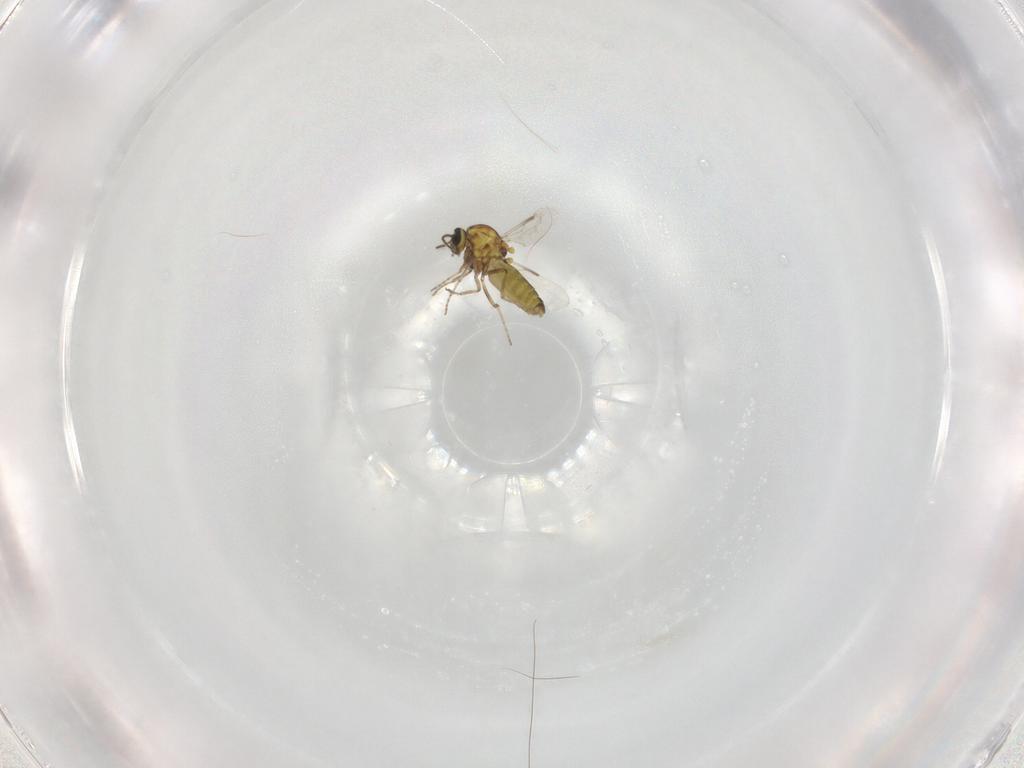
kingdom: Animalia
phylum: Arthropoda
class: Insecta
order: Diptera
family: Ceratopogonidae
